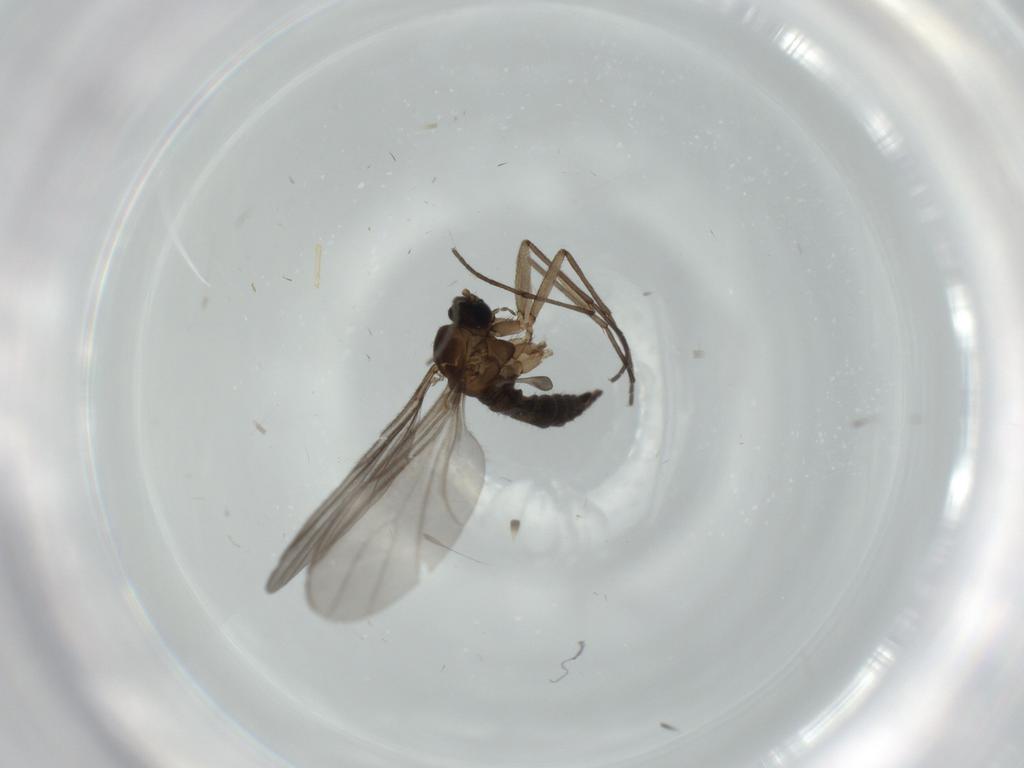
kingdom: Animalia
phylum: Arthropoda
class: Insecta
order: Diptera
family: Sciaridae
